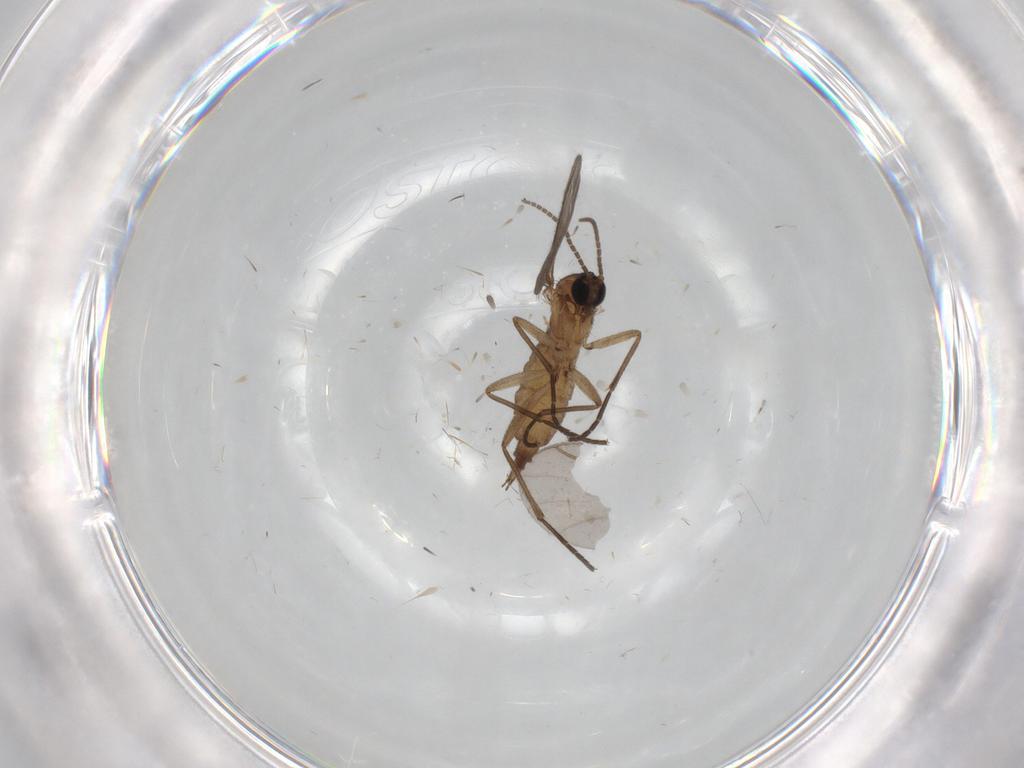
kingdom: Animalia
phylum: Arthropoda
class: Insecta
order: Diptera
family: Sciaridae
